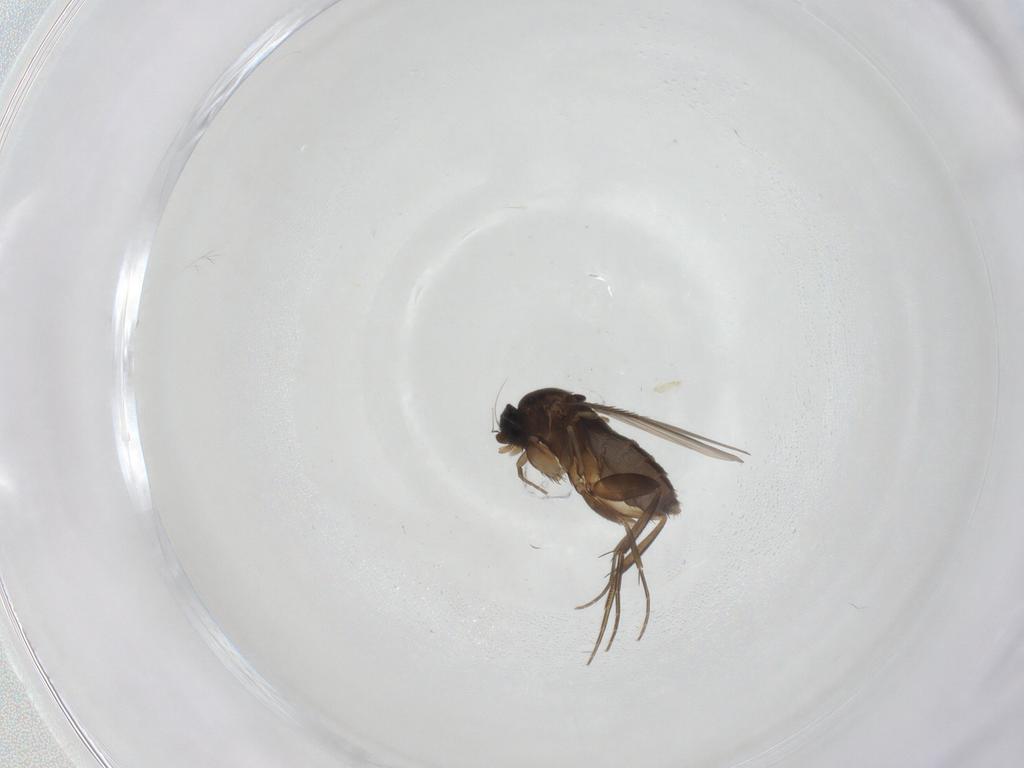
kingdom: Animalia
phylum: Arthropoda
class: Insecta
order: Diptera
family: Phoridae
